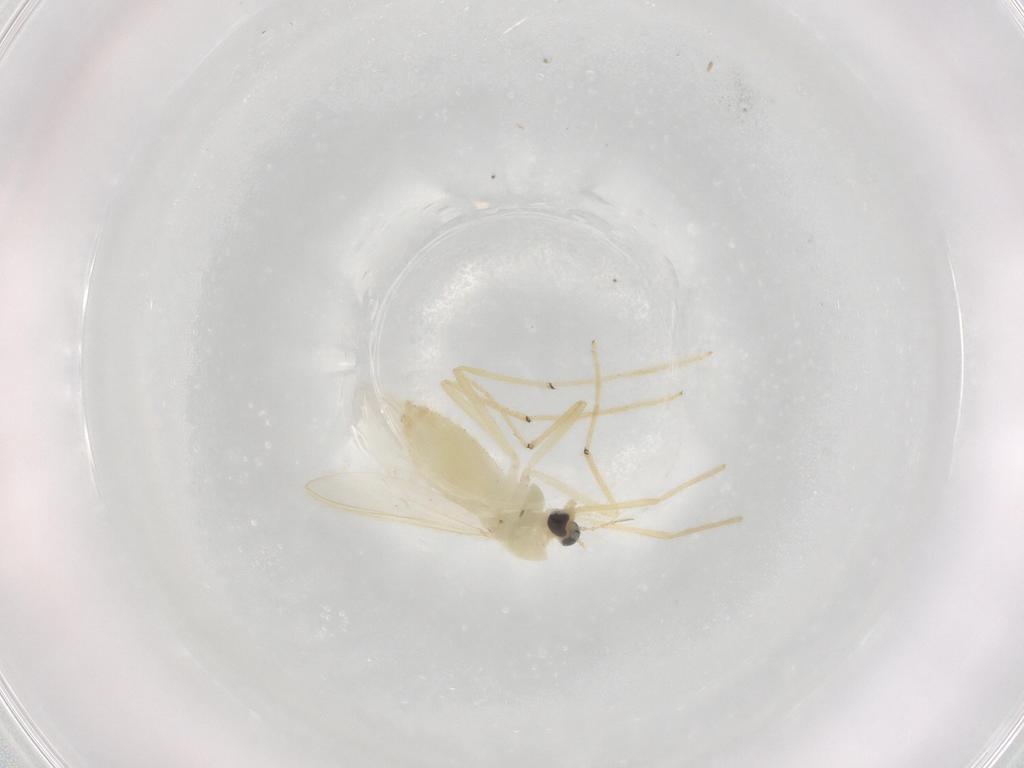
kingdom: Animalia
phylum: Arthropoda
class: Insecta
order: Diptera
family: Chironomidae
